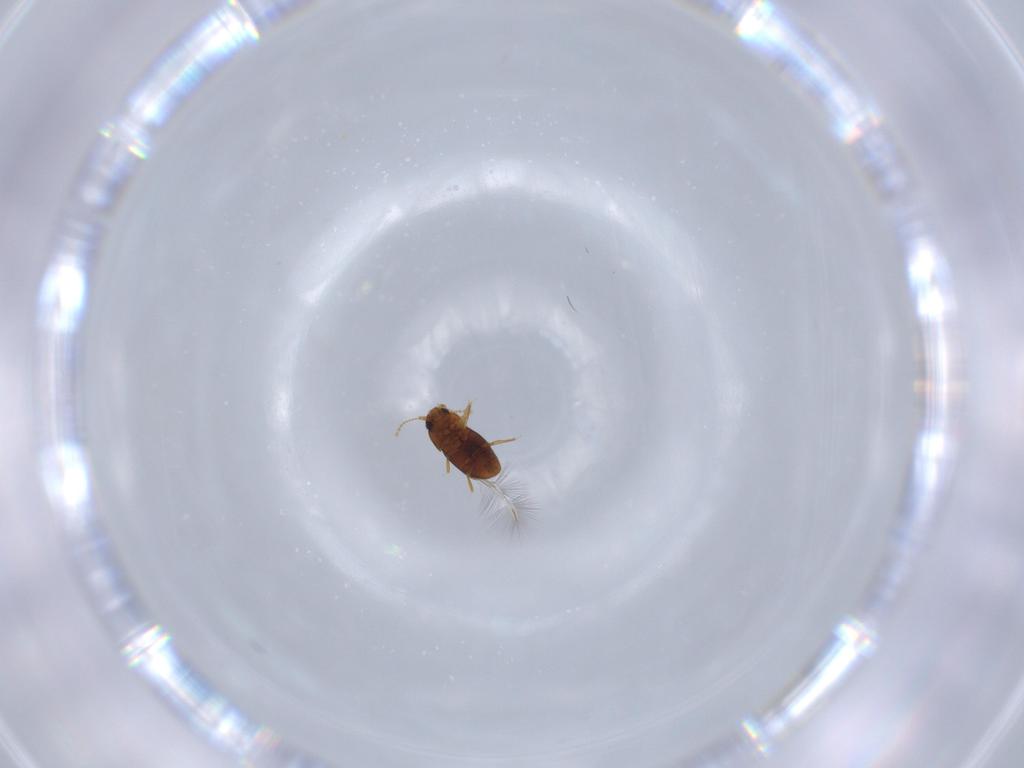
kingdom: Animalia
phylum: Arthropoda
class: Insecta
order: Coleoptera
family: Ptiliidae
